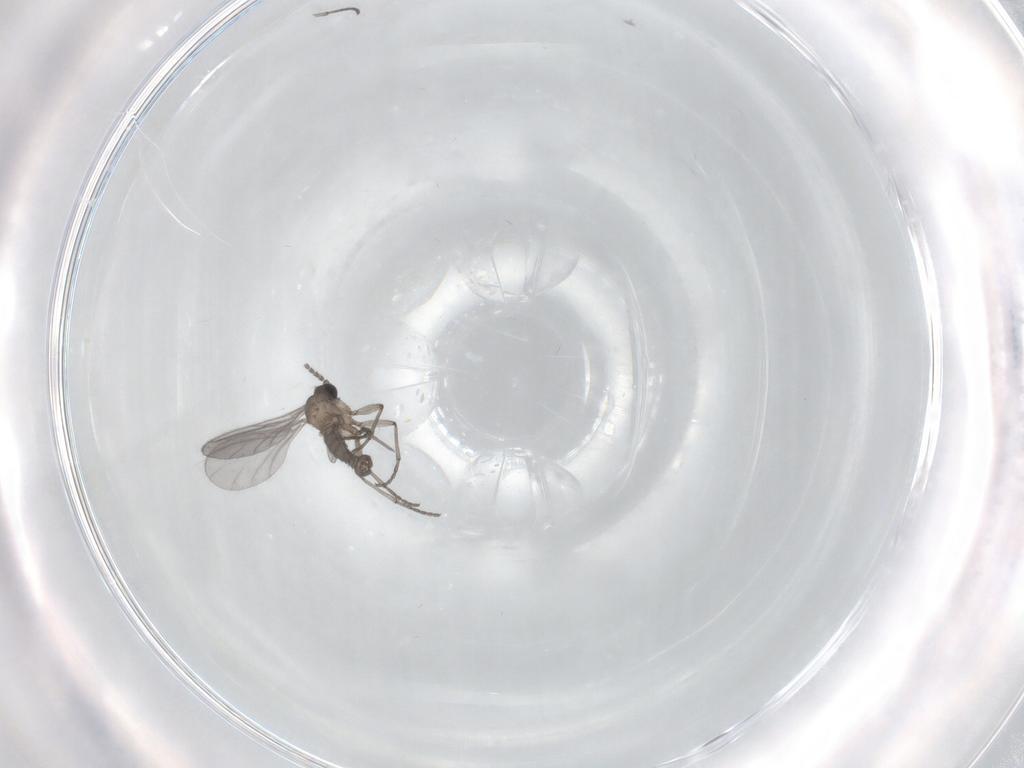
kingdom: Animalia
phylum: Arthropoda
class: Insecta
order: Diptera
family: Sciaridae
